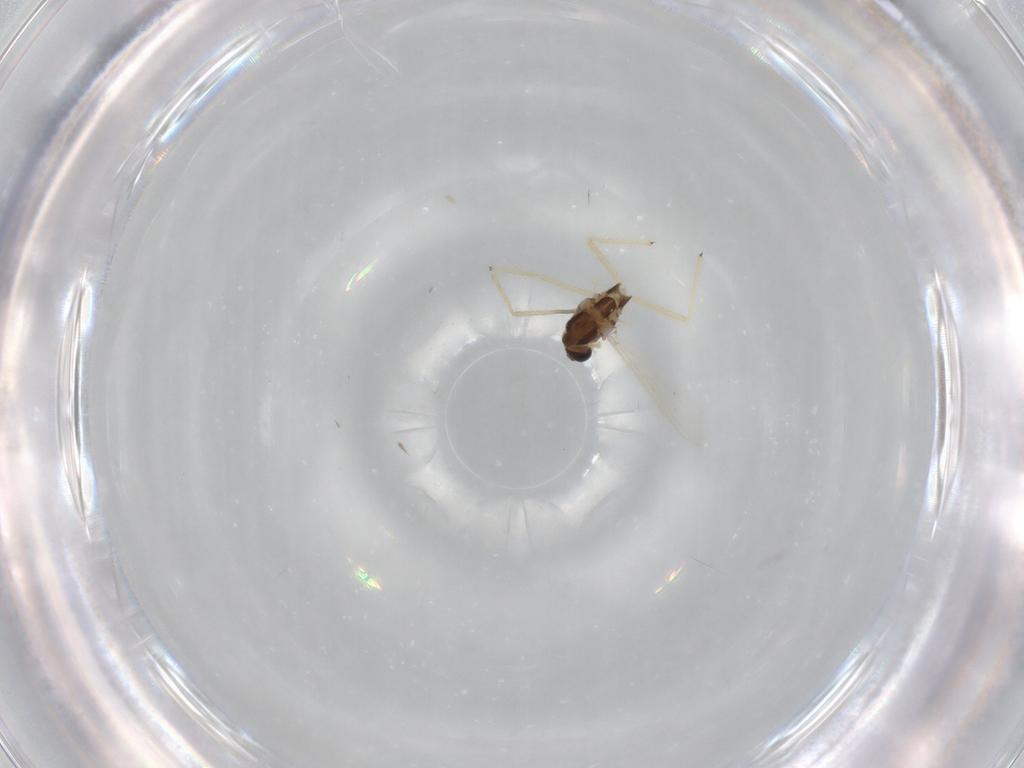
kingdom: Animalia
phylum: Arthropoda
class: Insecta
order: Diptera
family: Chironomidae
